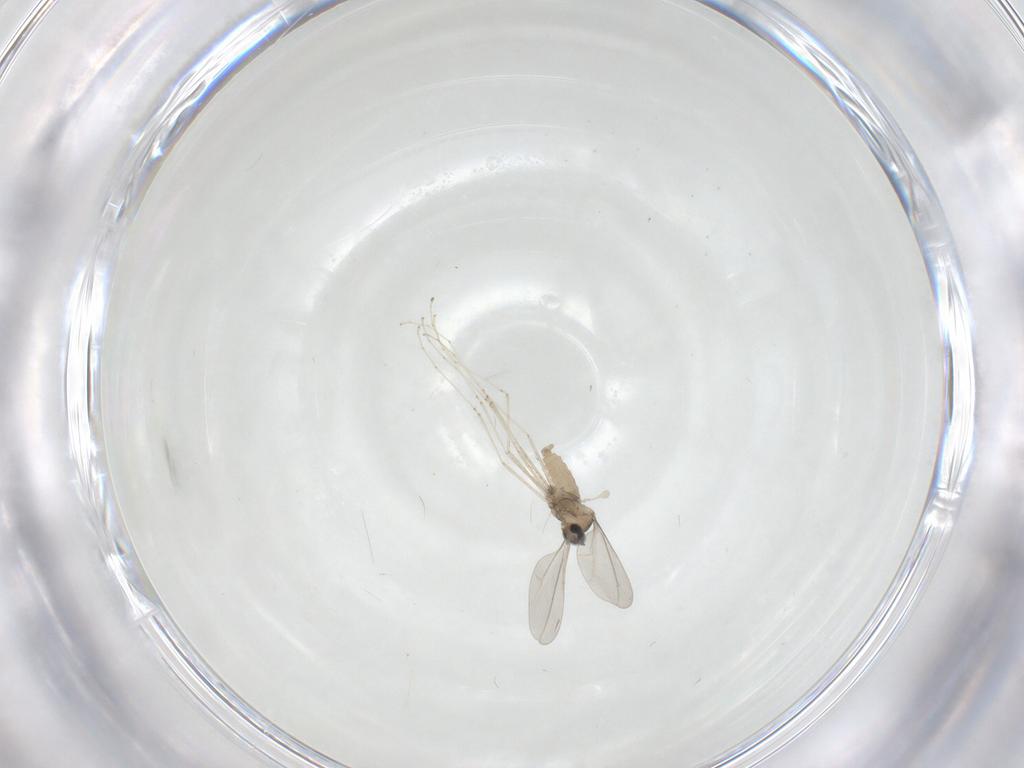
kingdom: Animalia
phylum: Arthropoda
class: Insecta
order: Diptera
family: Cecidomyiidae
